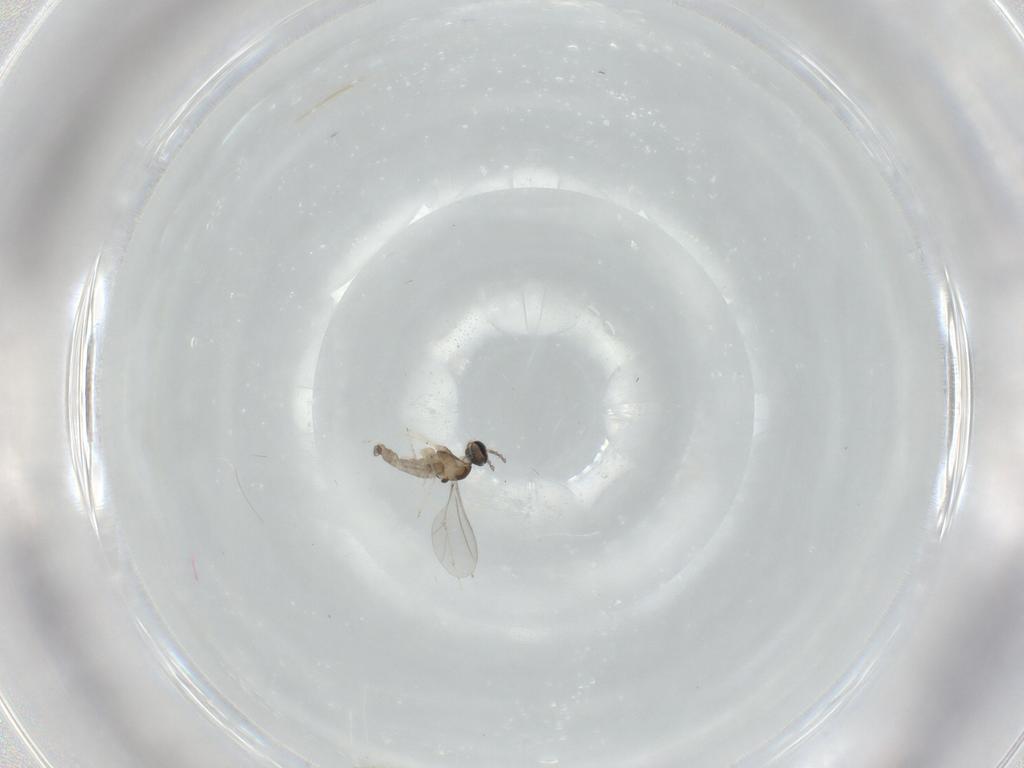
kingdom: Animalia
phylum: Arthropoda
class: Insecta
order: Diptera
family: Cecidomyiidae
